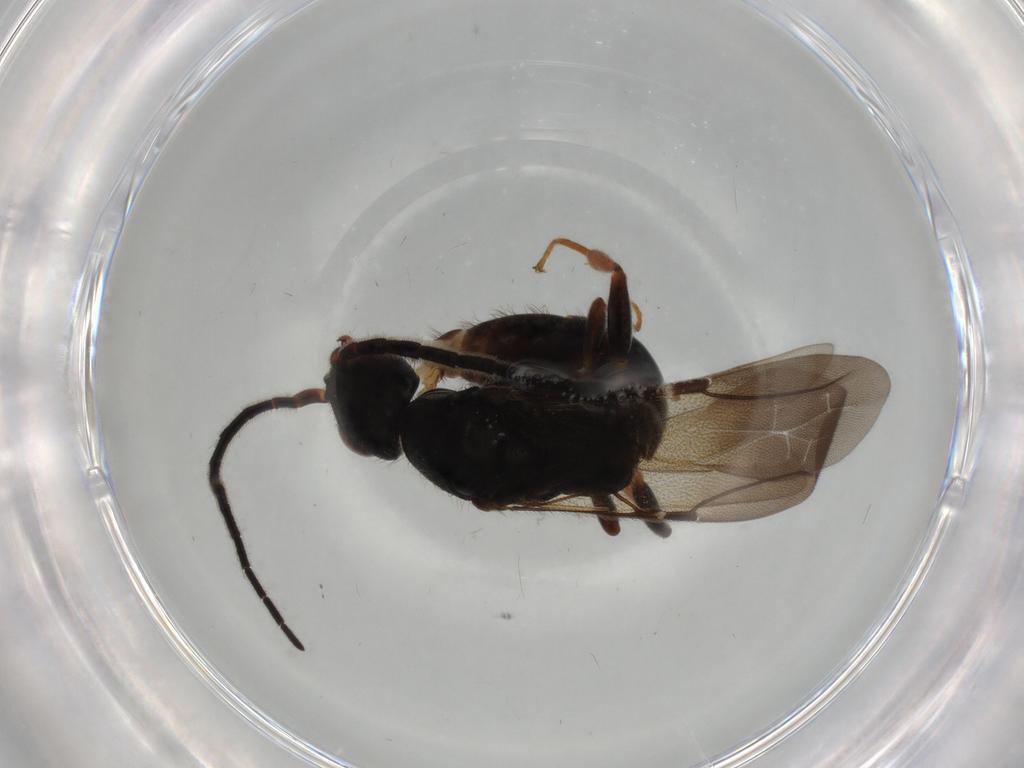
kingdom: Animalia
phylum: Arthropoda
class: Insecta
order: Hymenoptera
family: Bethylidae
